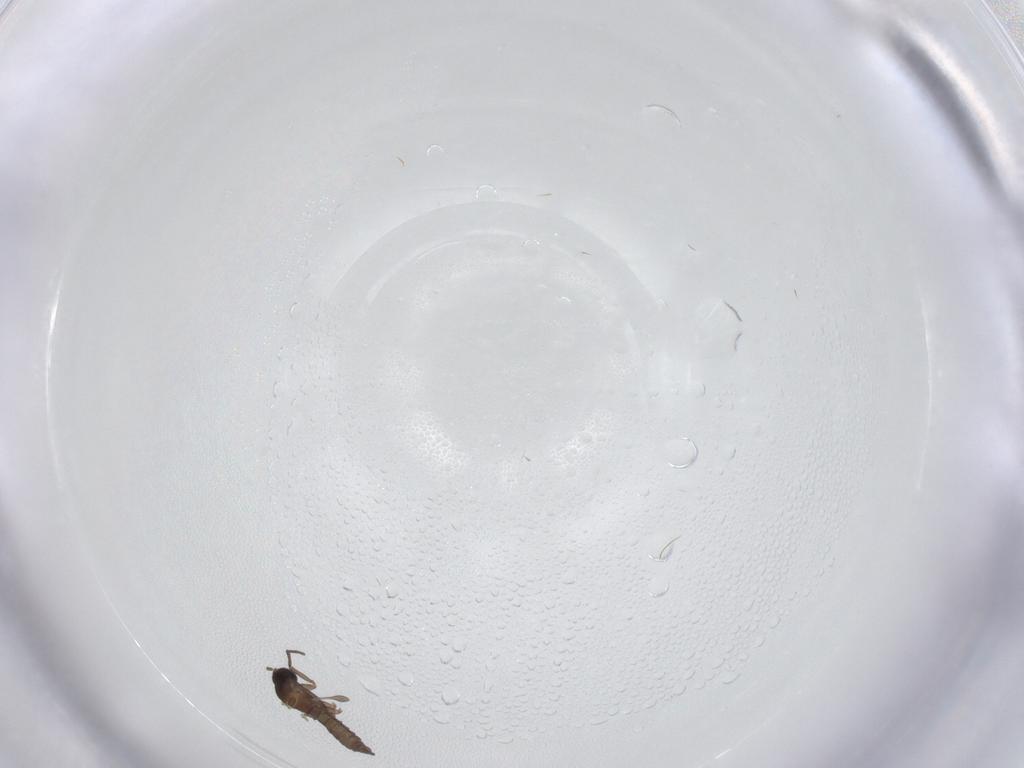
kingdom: Animalia
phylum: Arthropoda
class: Insecta
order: Diptera
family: Sciaridae
